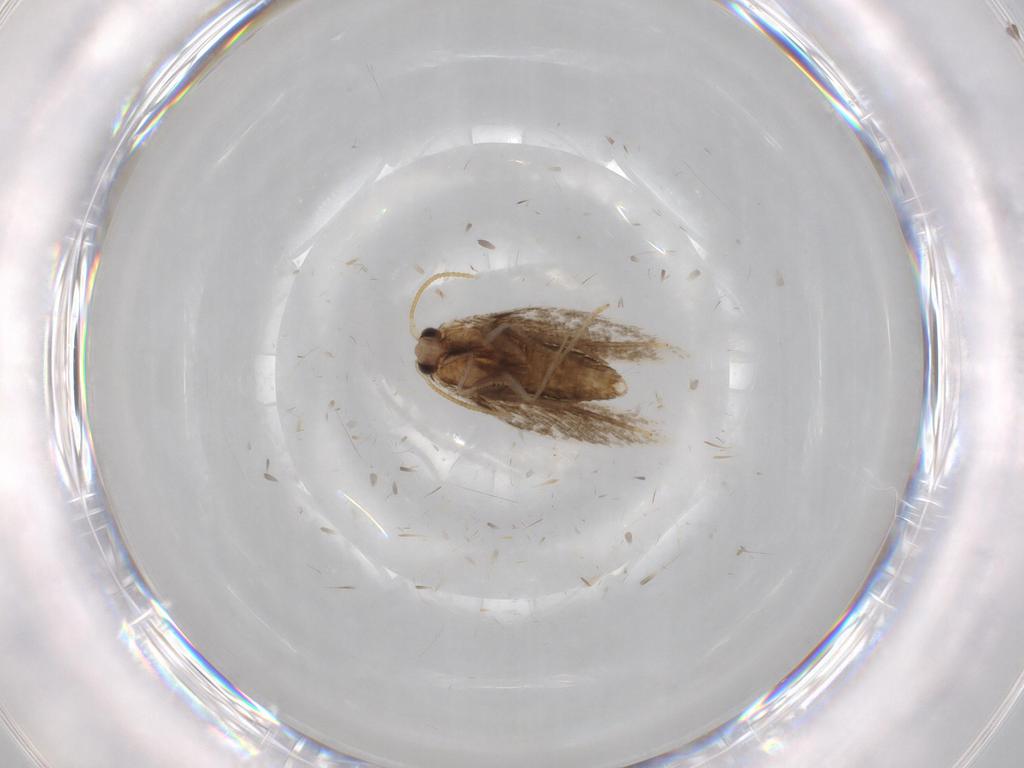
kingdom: Animalia
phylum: Arthropoda
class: Insecta
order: Lepidoptera
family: Nepticulidae
